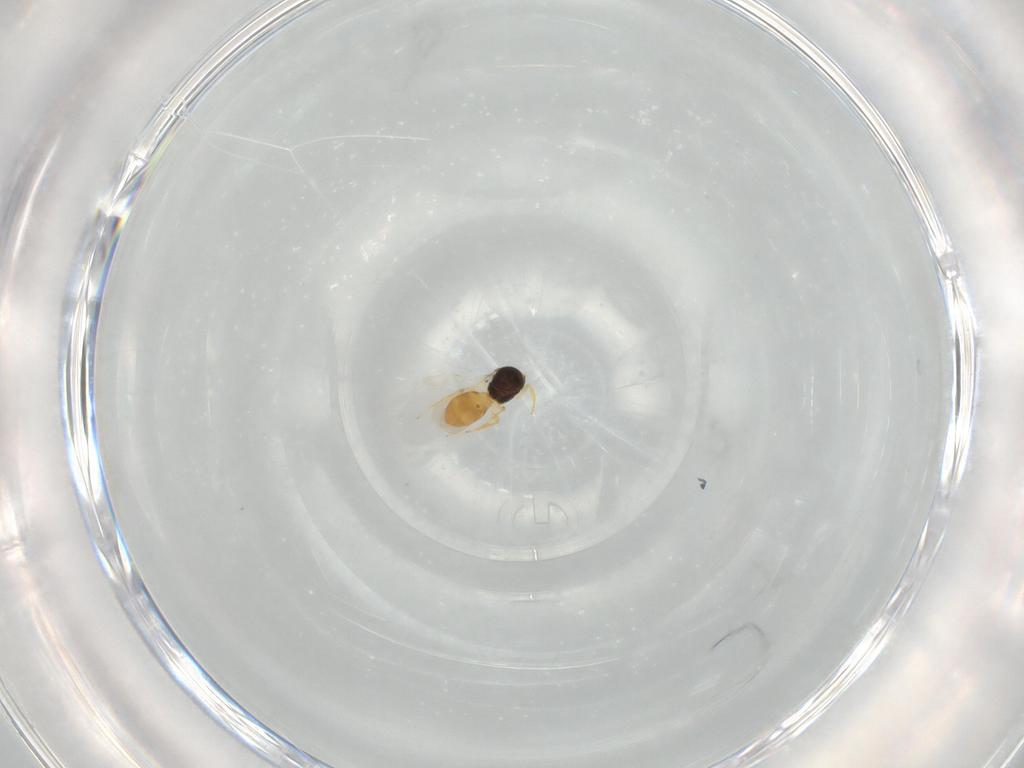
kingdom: Animalia
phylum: Arthropoda
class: Insecta
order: Hymenoptera
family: Scelionidae
